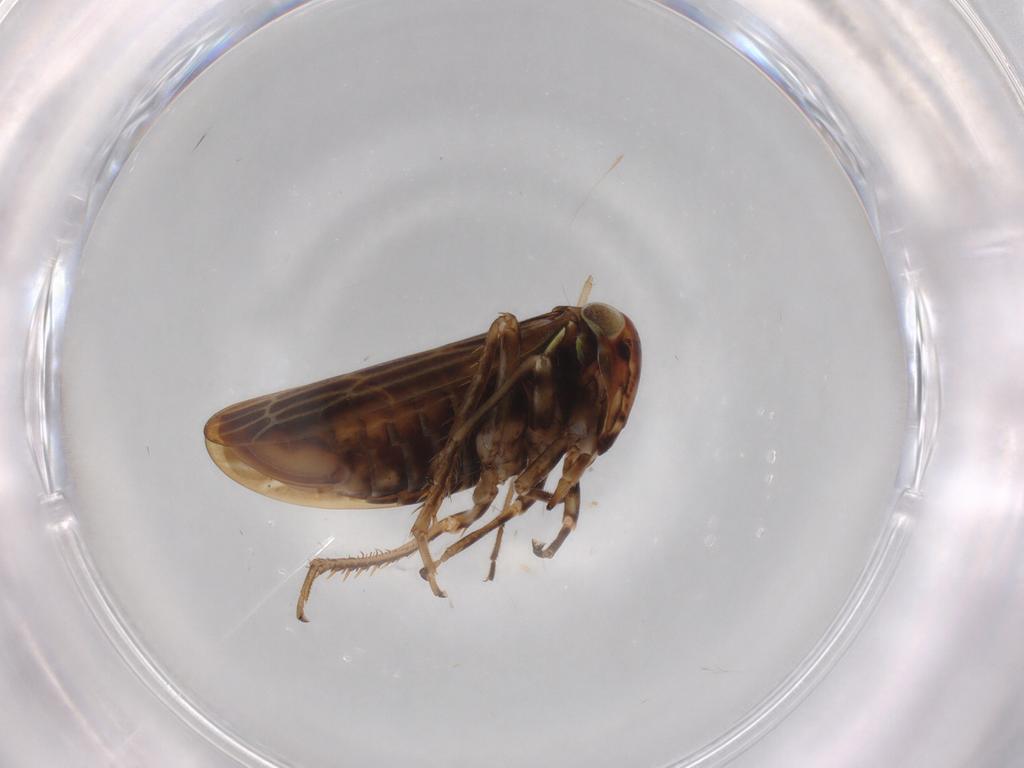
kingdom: Animalia
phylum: Arthropoda
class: Insecta
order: Hemiptera
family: Cicadellidae
